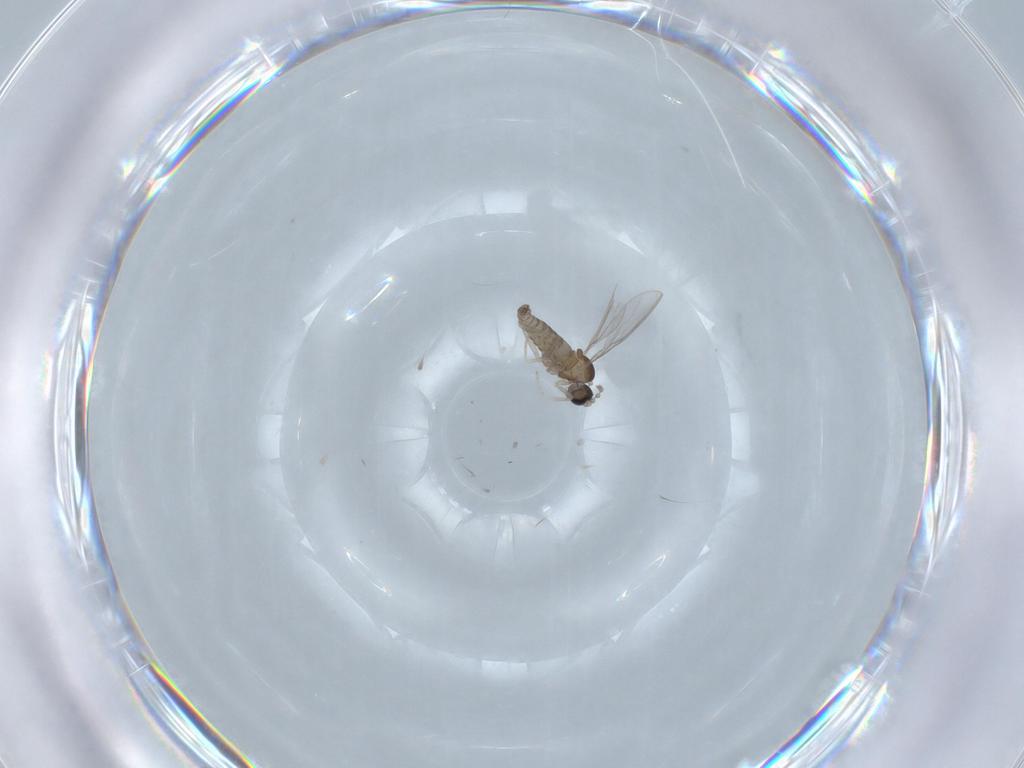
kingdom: Animalia
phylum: Arthropoda
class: Insecta
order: Diptera
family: Cecidomyiidae
